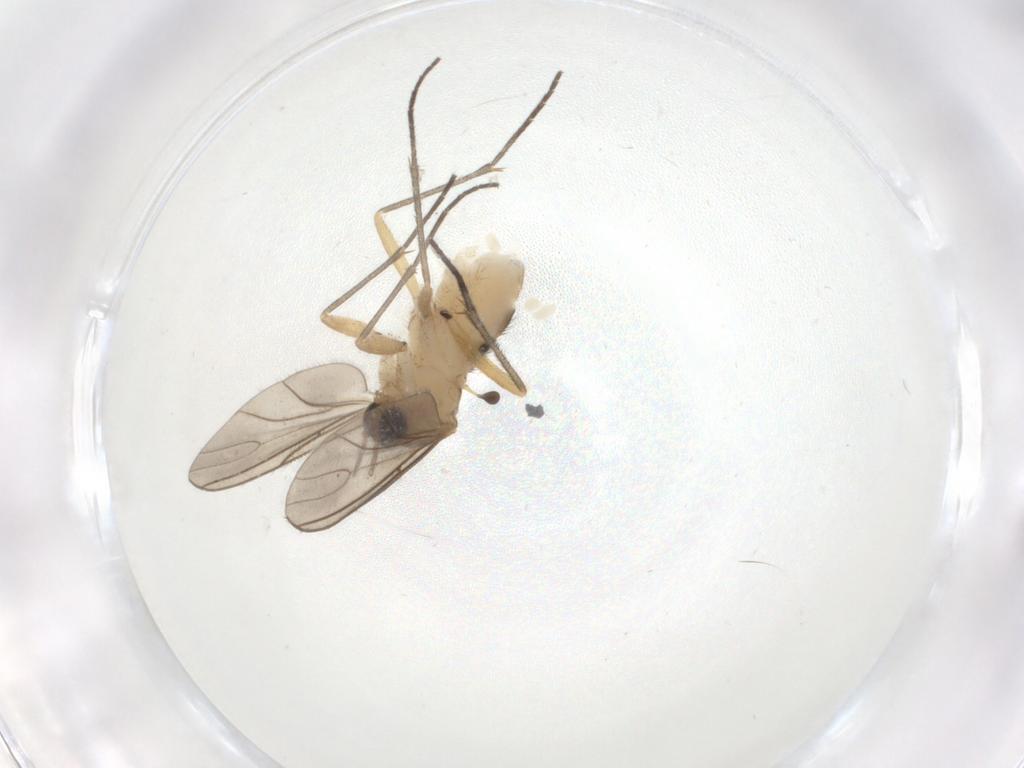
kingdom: Animalia
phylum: Arthropoda
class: Insecta
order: Diptera
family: Sciaridae
